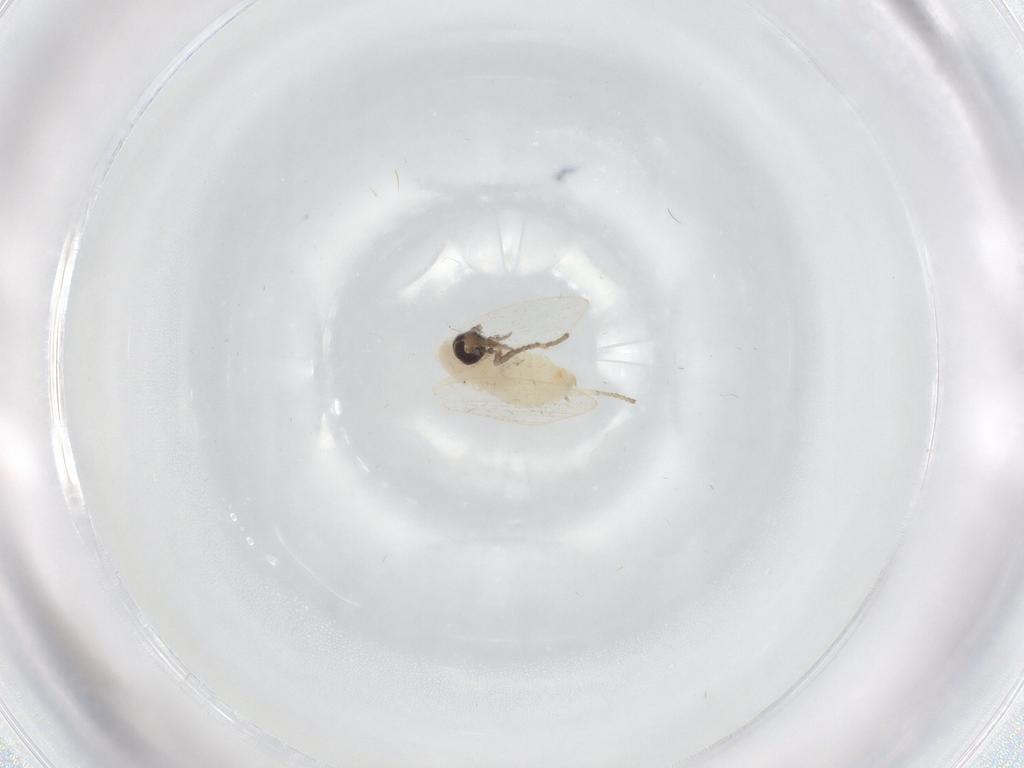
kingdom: Animalia
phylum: Arthropoda
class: Insecta
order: Diptera
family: Psychodidae
